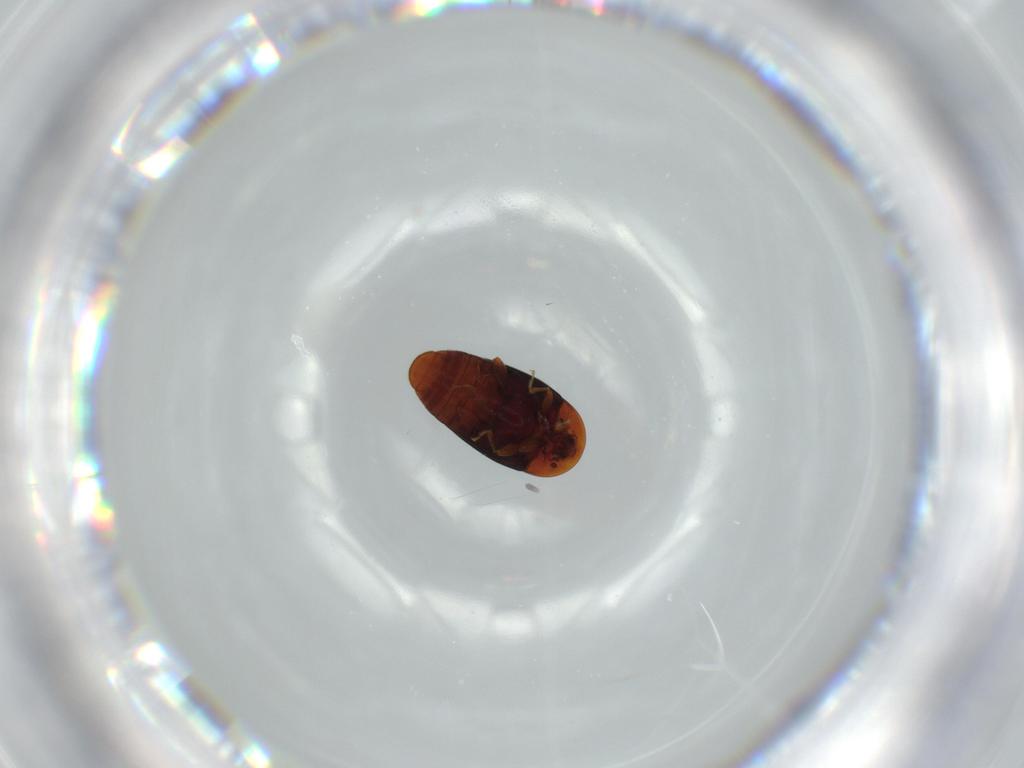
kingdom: Animalia
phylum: Arthropoda
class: Insecta
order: Coleoptera
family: Corylophidae
